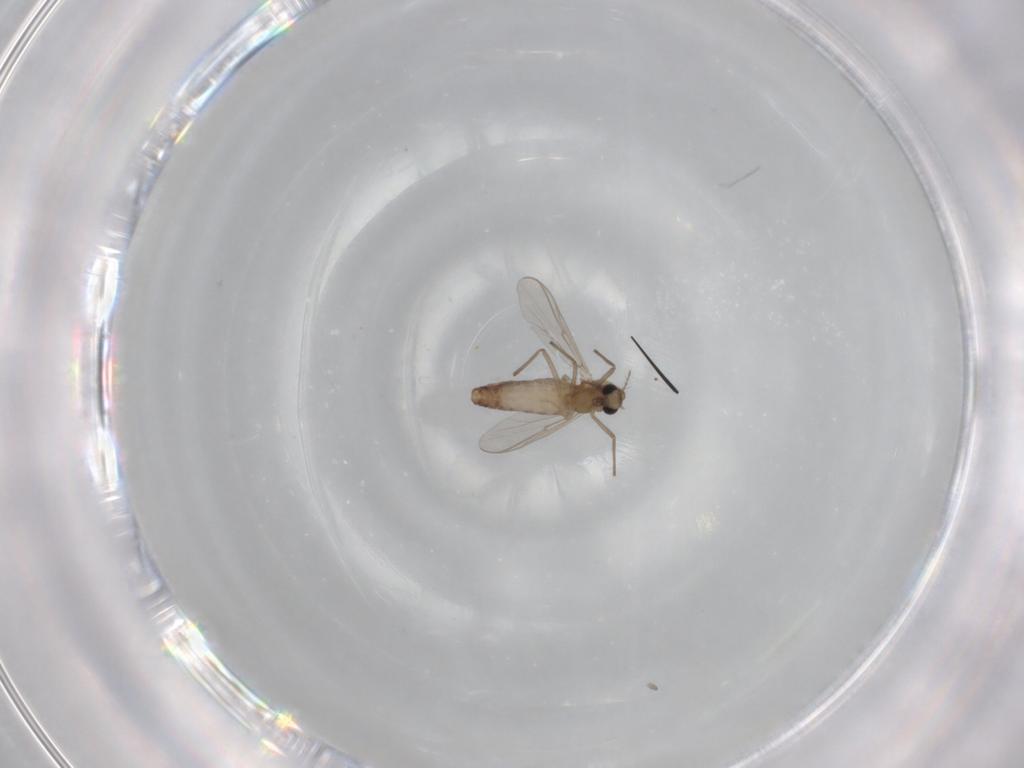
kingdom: Animalia
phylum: Arthropoda
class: Insecta
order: Diptera
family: Chironomidae
